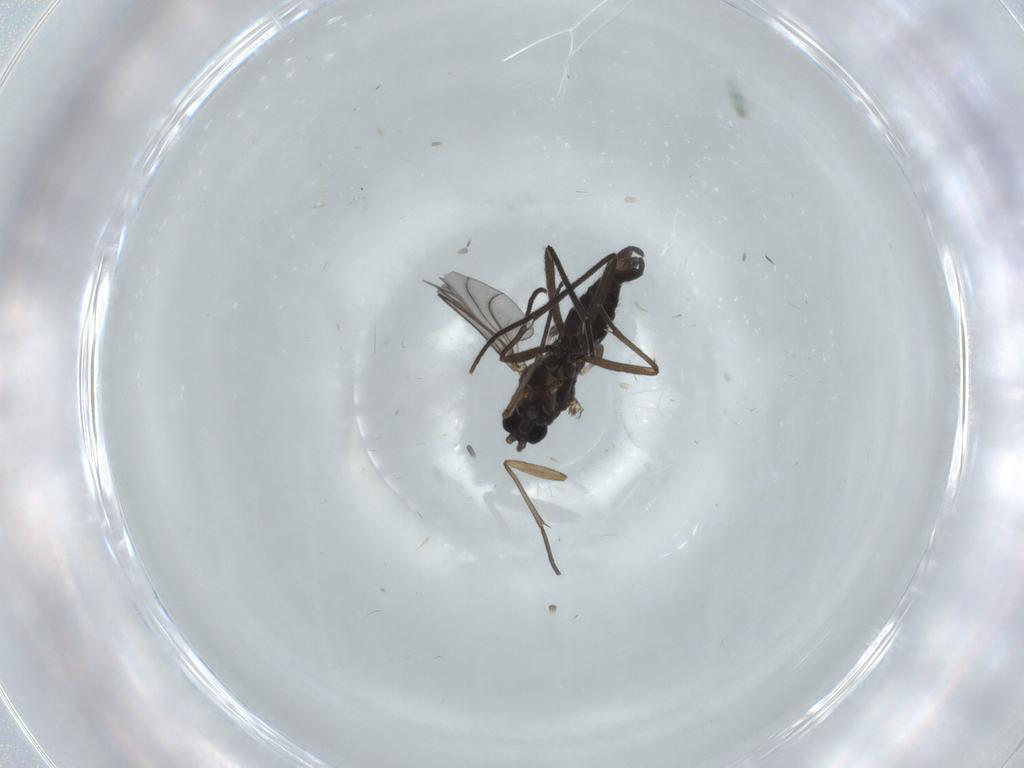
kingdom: Animalia
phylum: Arthropoda
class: Insecta
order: Diptera
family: Sciaridae
